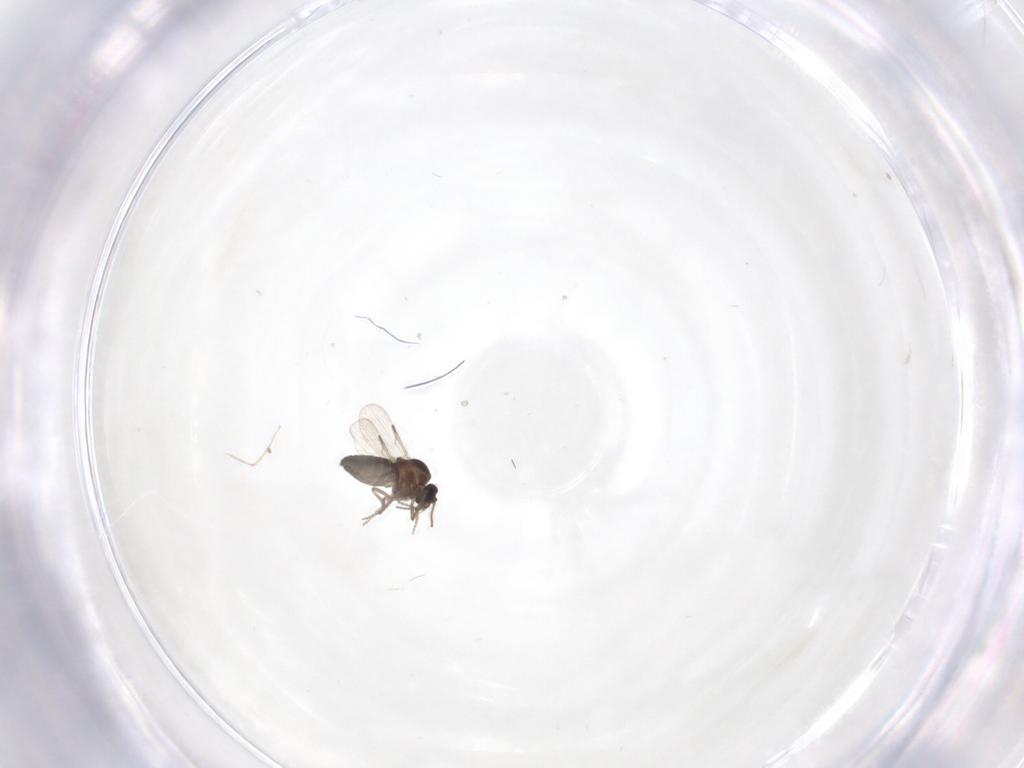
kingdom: Animalia
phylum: Arthropoda
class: Insecta
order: Diptera
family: Ceratopogonidae
